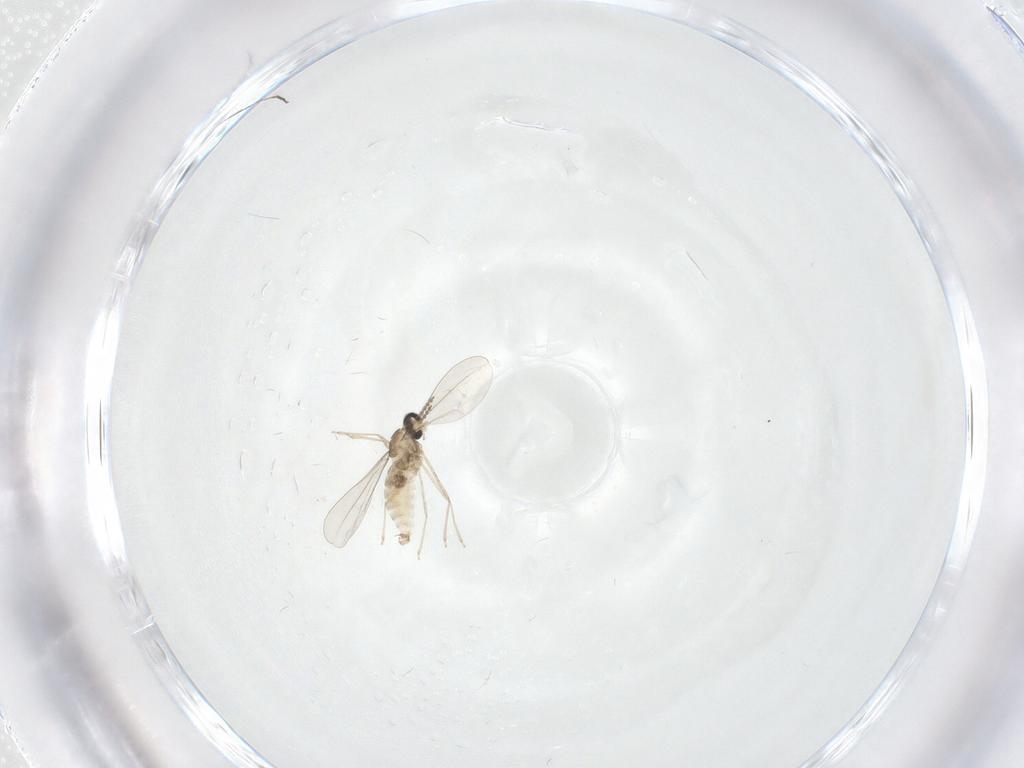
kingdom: Animalia
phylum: Arthropoda
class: Insecta
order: Diptera
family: Cecidomyiidae
